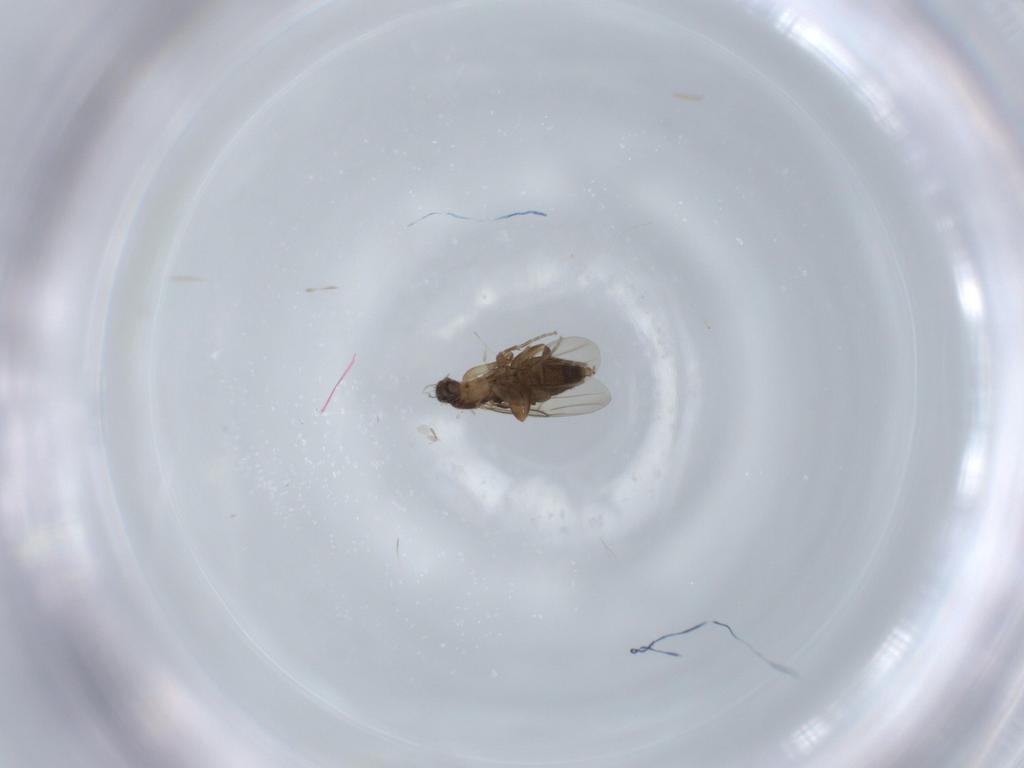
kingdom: Animalia
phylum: Arthropoda
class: Insecta
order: Diptera
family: Phoridae
